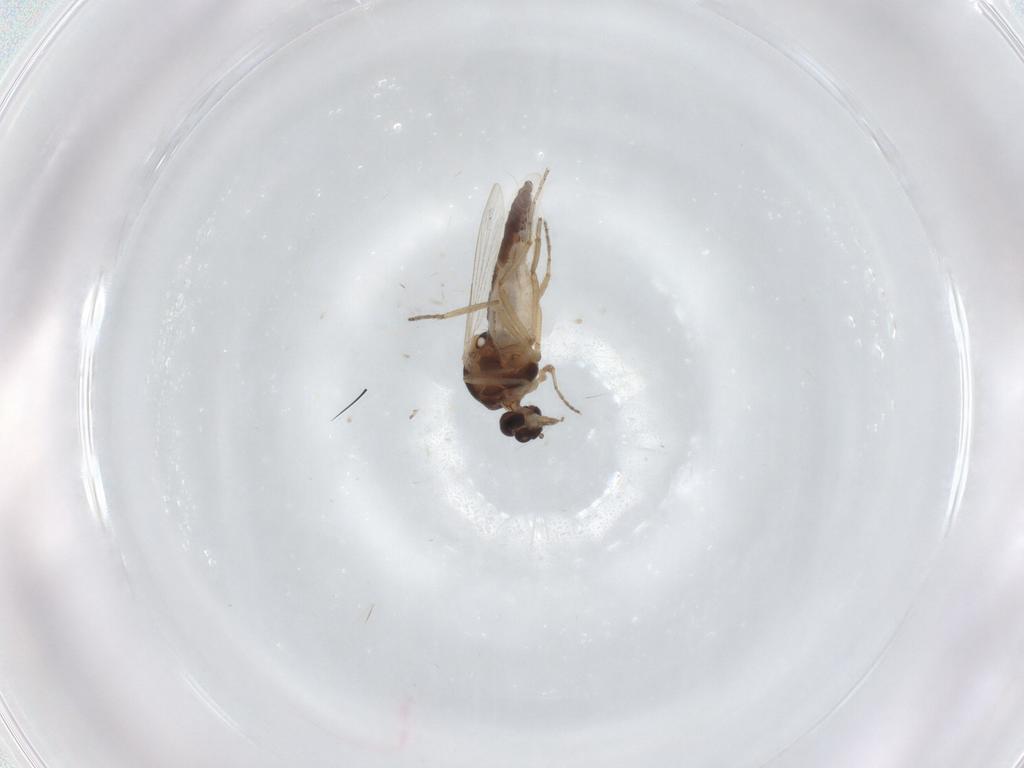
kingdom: Animalia
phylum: Arthropoda
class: Insecta
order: Diptera
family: Ceratopogonidae
